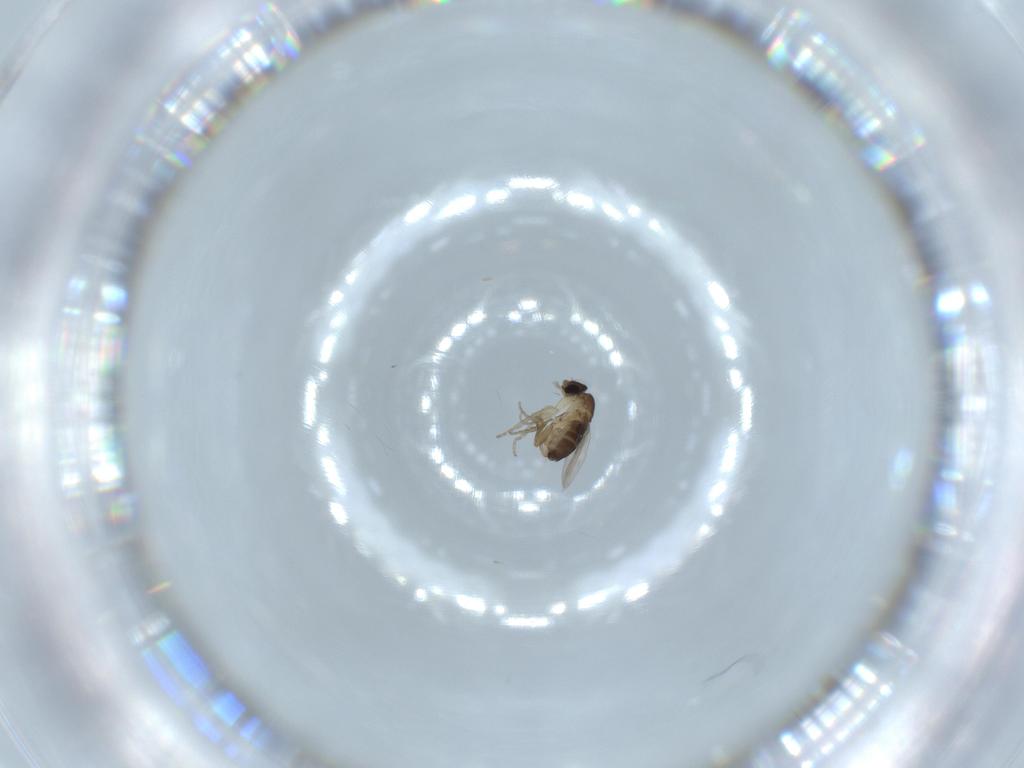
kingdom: Animalia
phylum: Arthropoda
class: Insecta
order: Diptera
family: Phoridae
